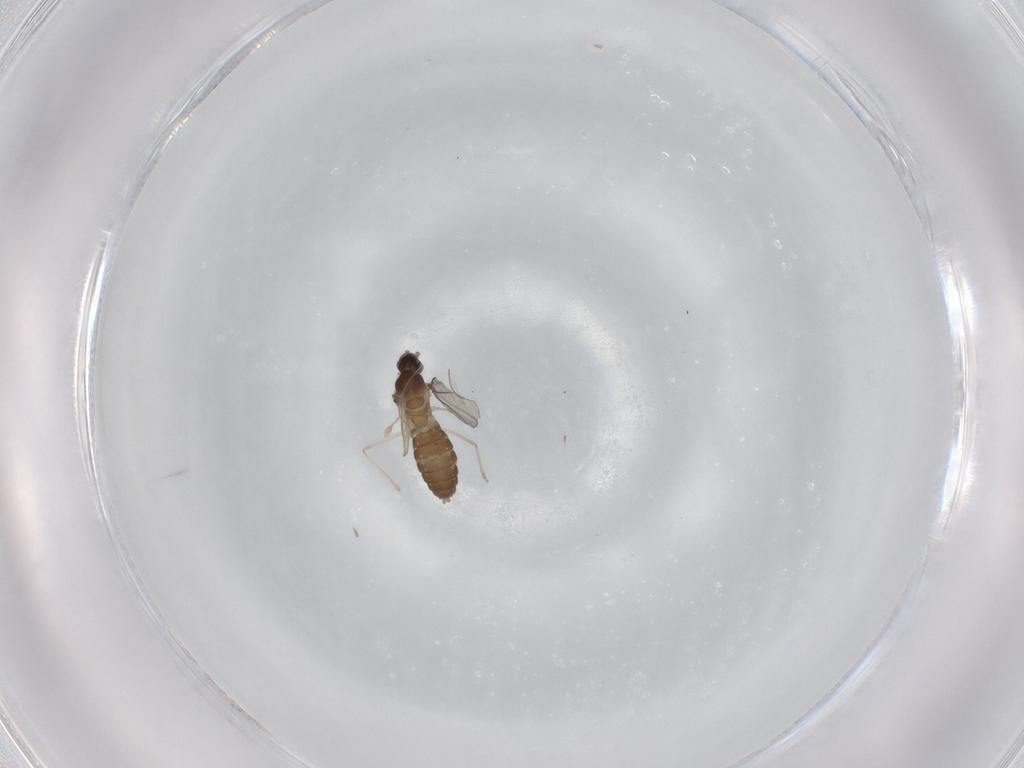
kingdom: Animalia
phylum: Arthropoda
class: Insecta
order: Diptera
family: Cecidomyiidae
